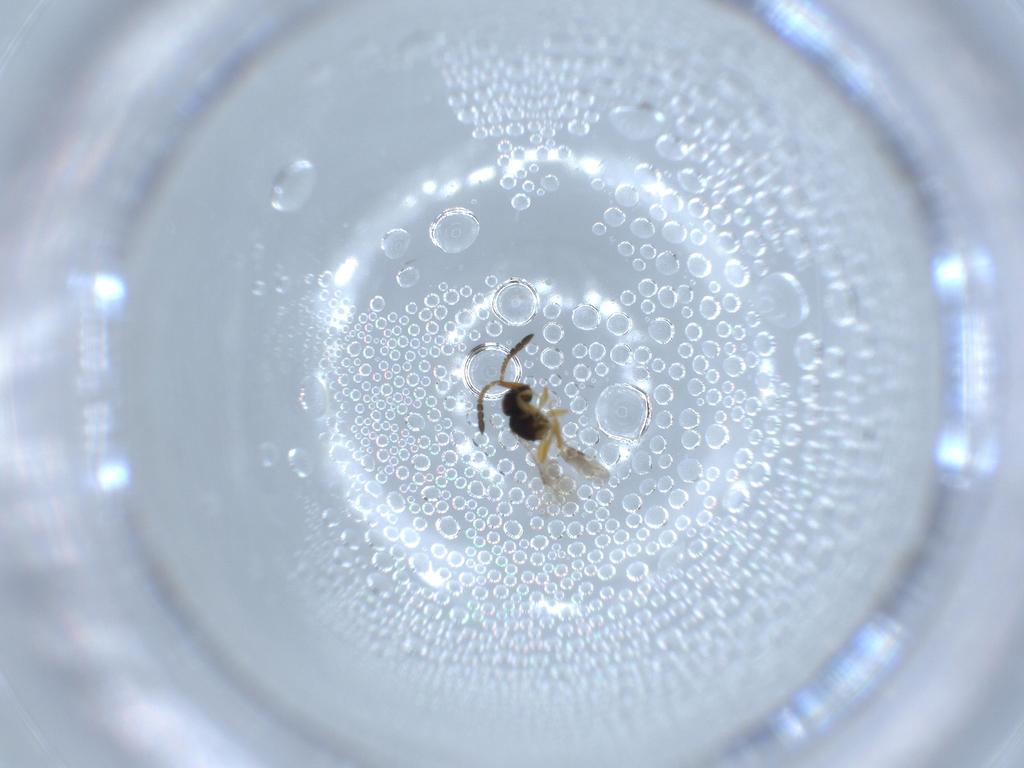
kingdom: Animalia
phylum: Arthropoda
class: Insecta
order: Hymenoptera
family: Ceraphronidae
